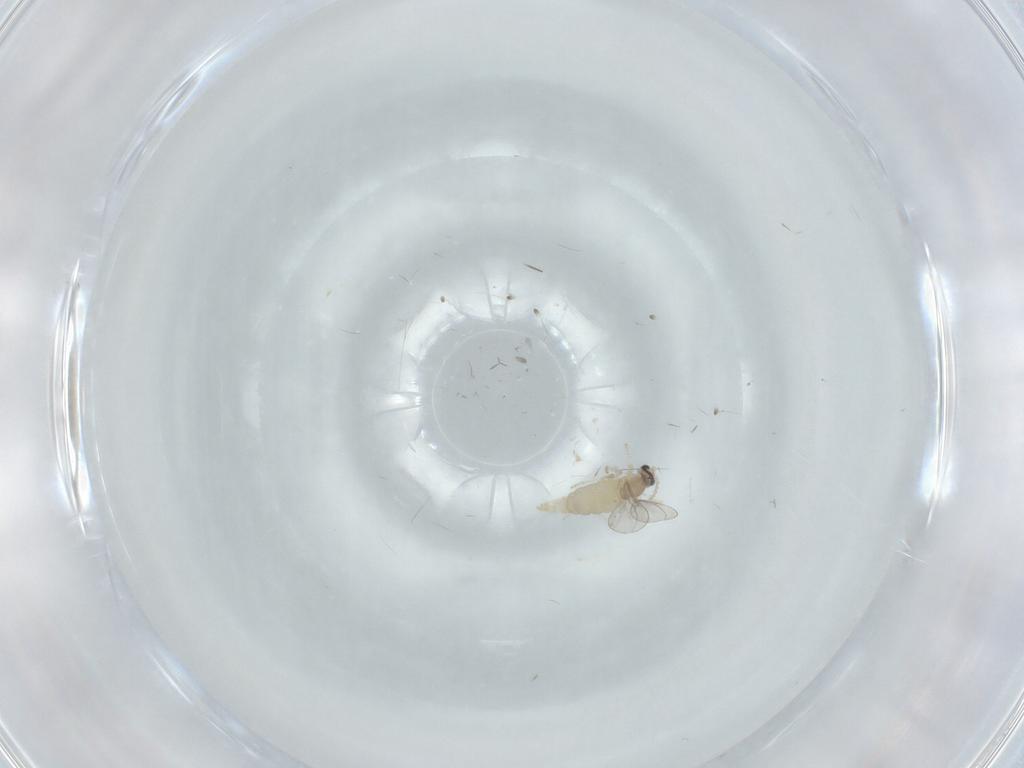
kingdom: Animalia
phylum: Arthropoda
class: Insecta
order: Diptera
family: Cecidomyiidae
